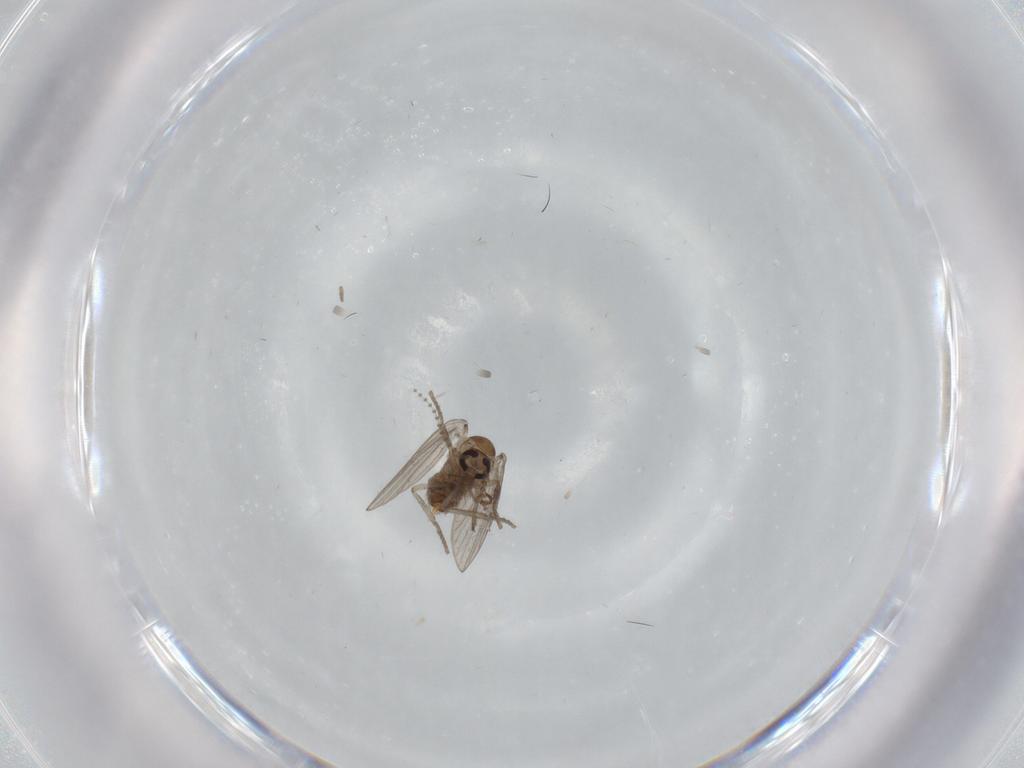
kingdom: Animalia
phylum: Arthropoda
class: Insecta
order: Diptera
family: Psychodidae
